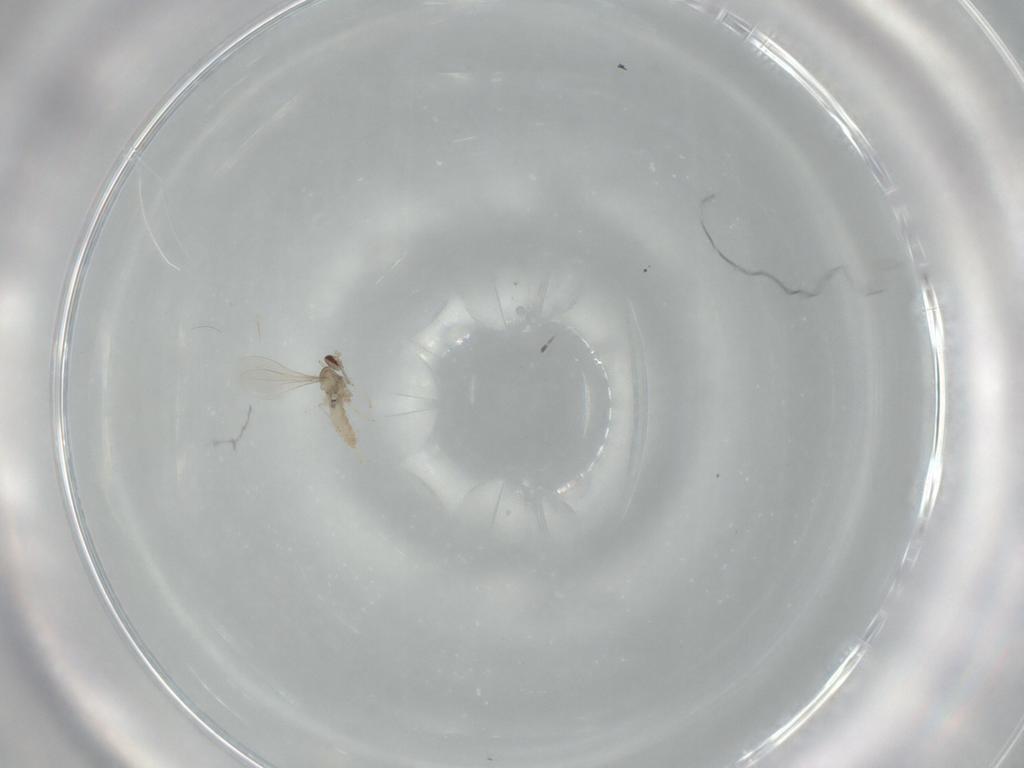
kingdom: Animalia
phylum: Arthropoda
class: Insecta
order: Diptera
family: Cecidomyiidae
